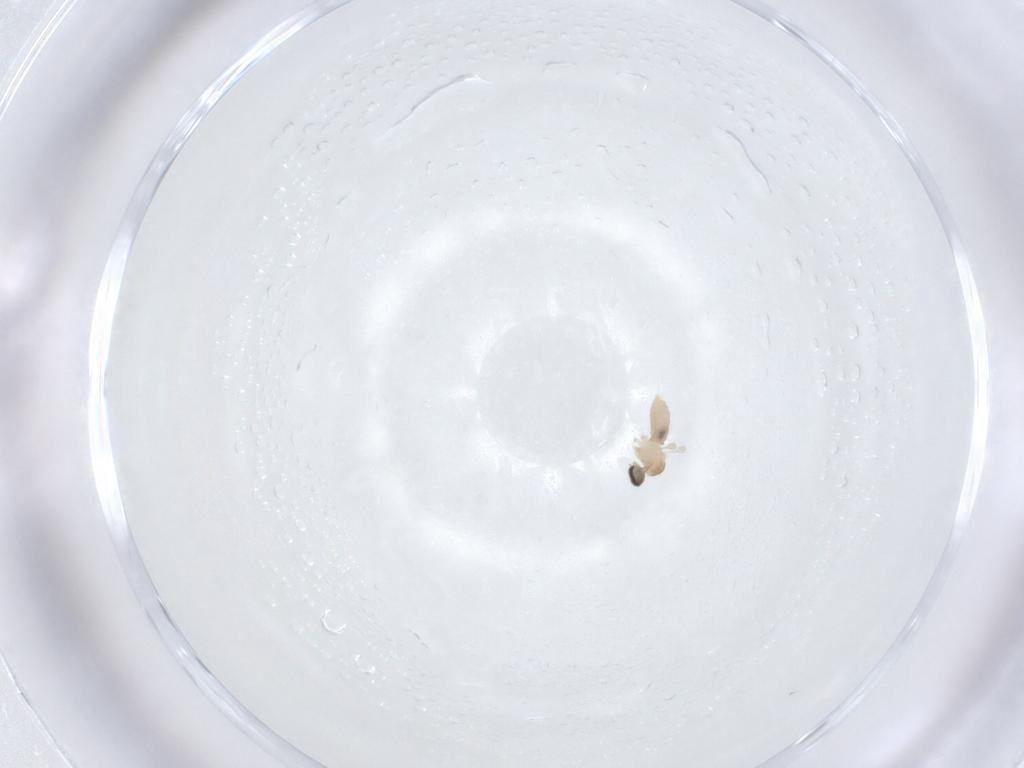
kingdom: Animalia
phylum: Arthropoda
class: Insecta
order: Diptera
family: Cecidomyiidae
